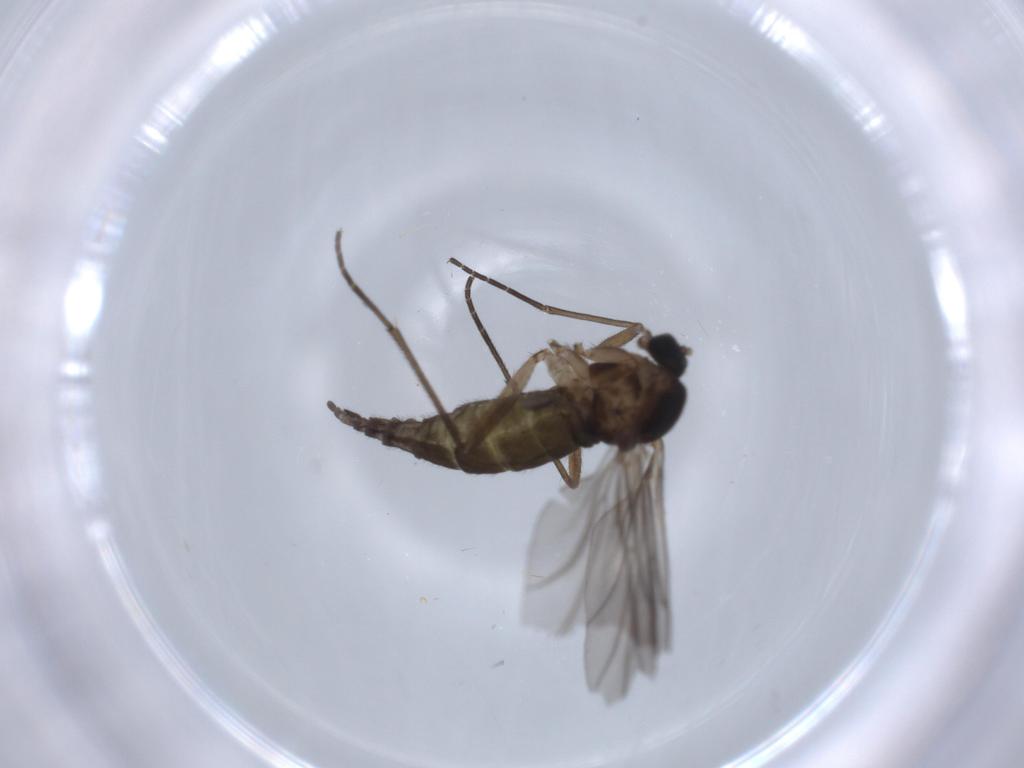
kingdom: Animalia
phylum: Arthropoda
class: Insecta
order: Diptera
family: Sciaridae
